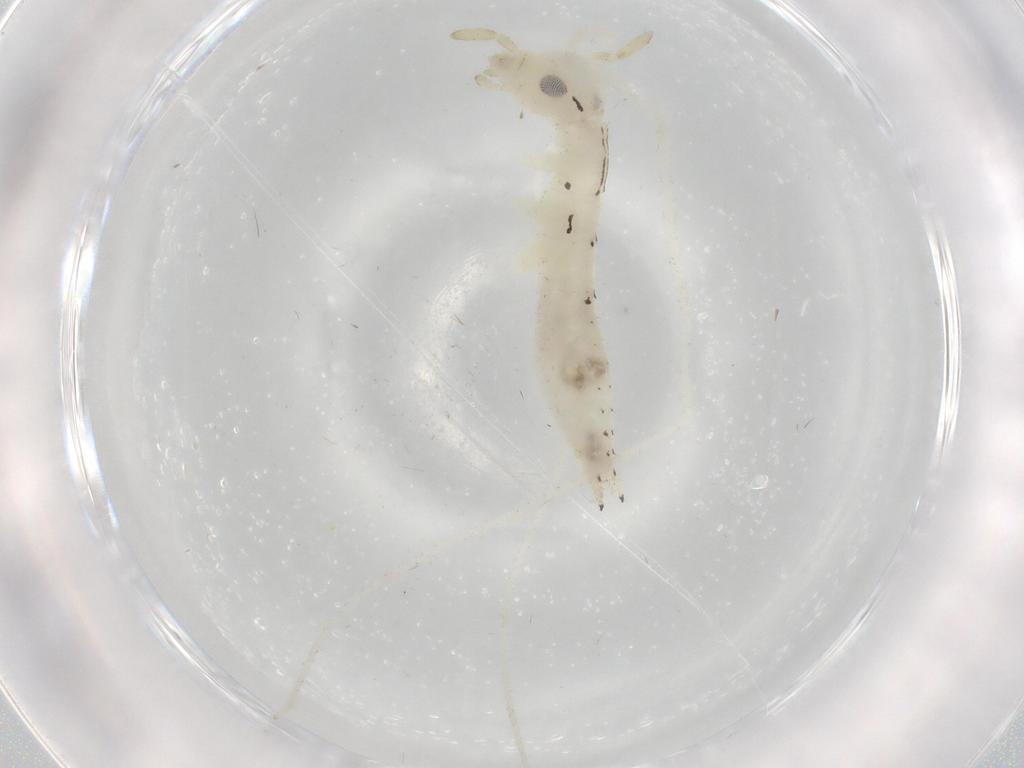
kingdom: Animalia
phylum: Arthropoda
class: Insecta
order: Orthoptera
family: Oecanthidae
